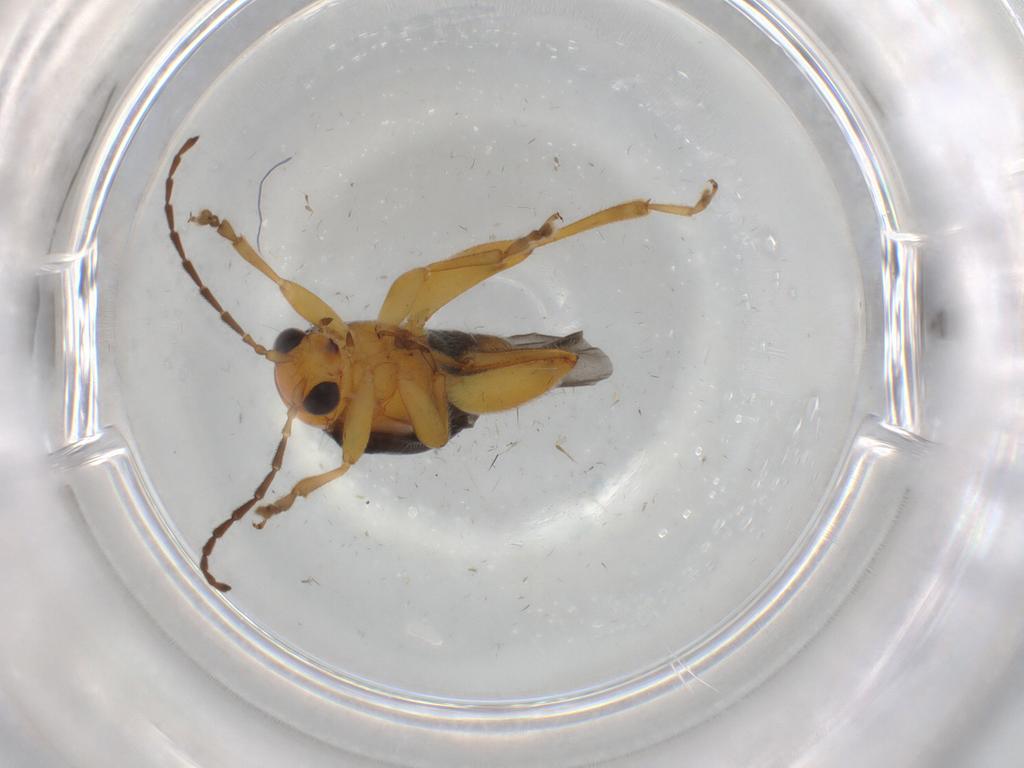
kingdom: Animalia
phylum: Arthropoda
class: Insecta
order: Coleoptera
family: Chrysomelidae
